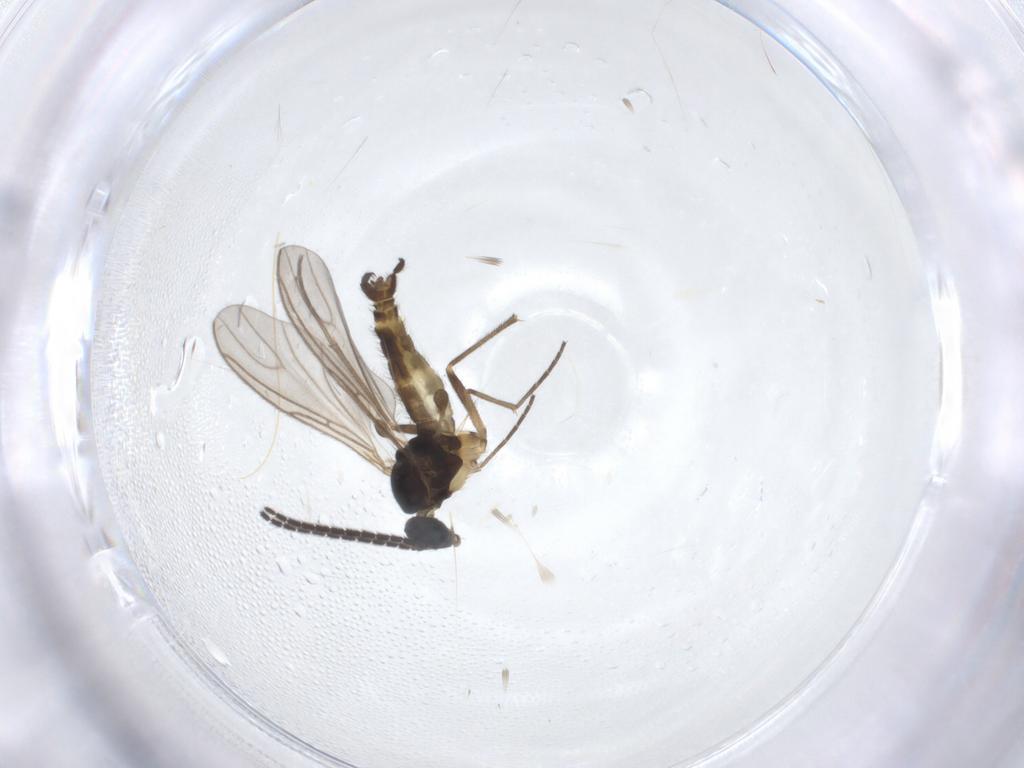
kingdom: Animalia
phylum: Arthropoda
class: Insecta
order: Diptera
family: Sciaridae
